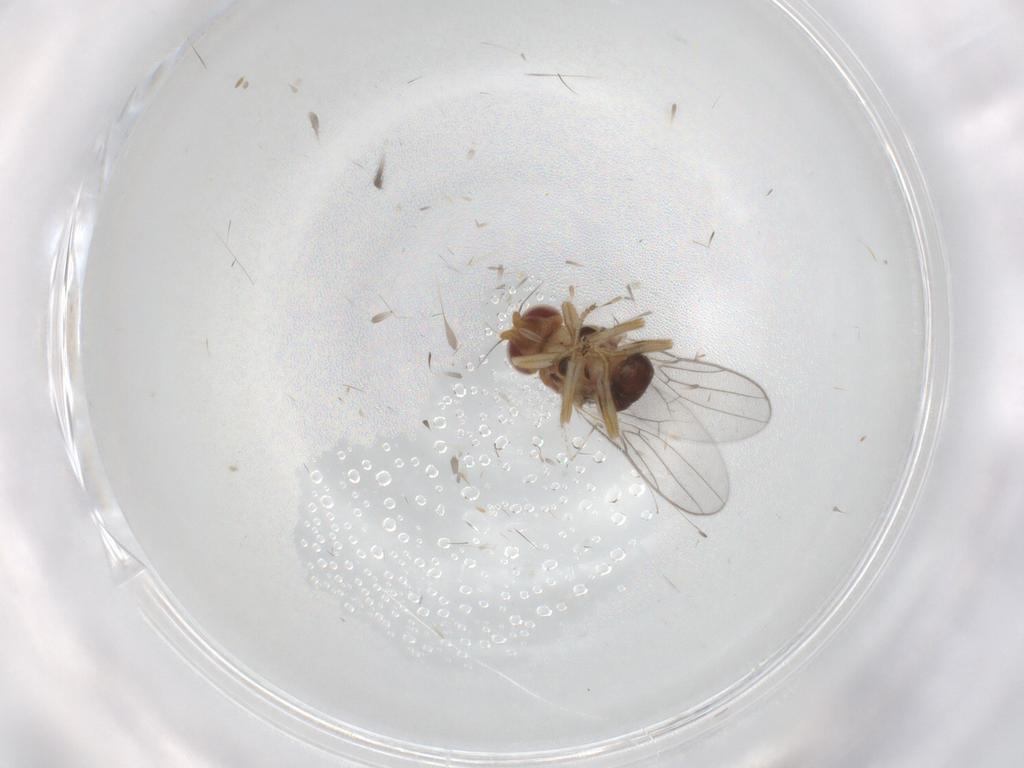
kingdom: Animalia
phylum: Arthropoda
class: Insecta
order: Diptera
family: Chloropidae
